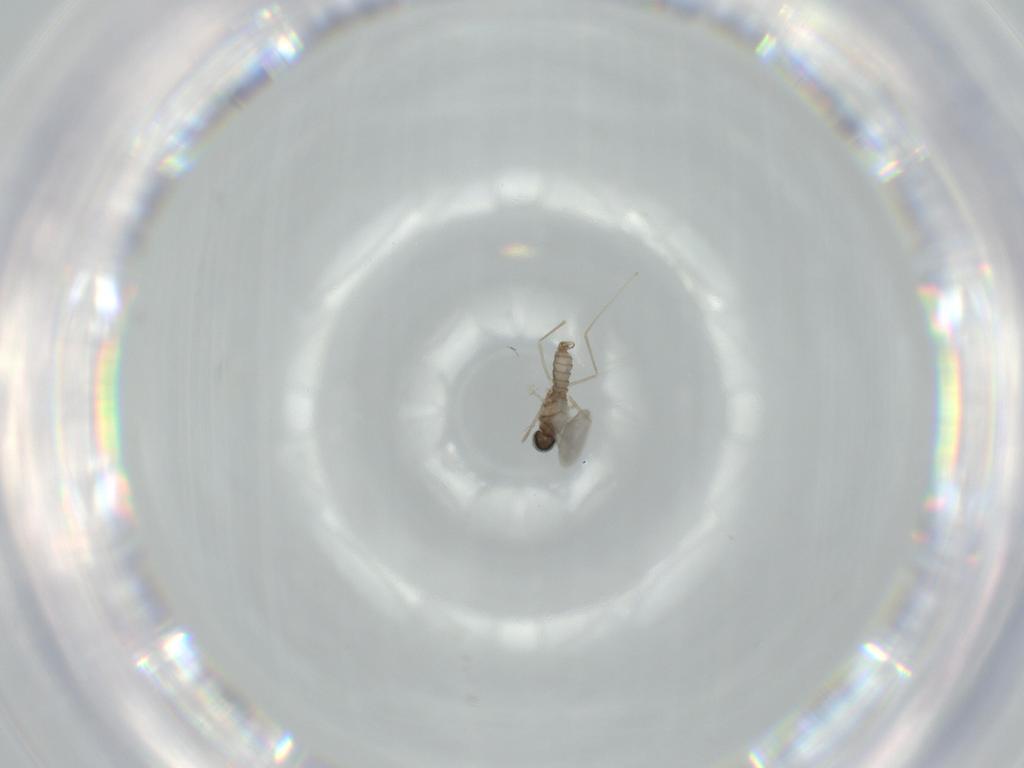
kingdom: Animalia
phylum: Arthropoda
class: Insecta
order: Diptera
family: Cecidomyiidae
